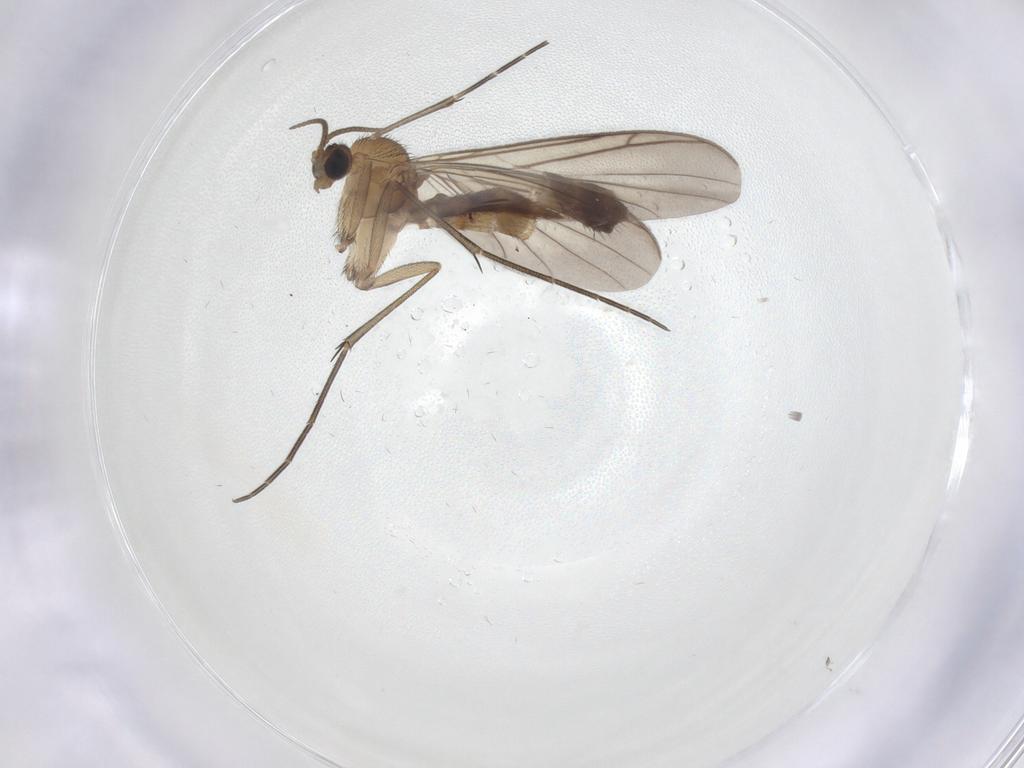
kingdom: Animalia
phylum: Arthropoda
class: Insecta
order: Diptera
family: Keroplatidae
